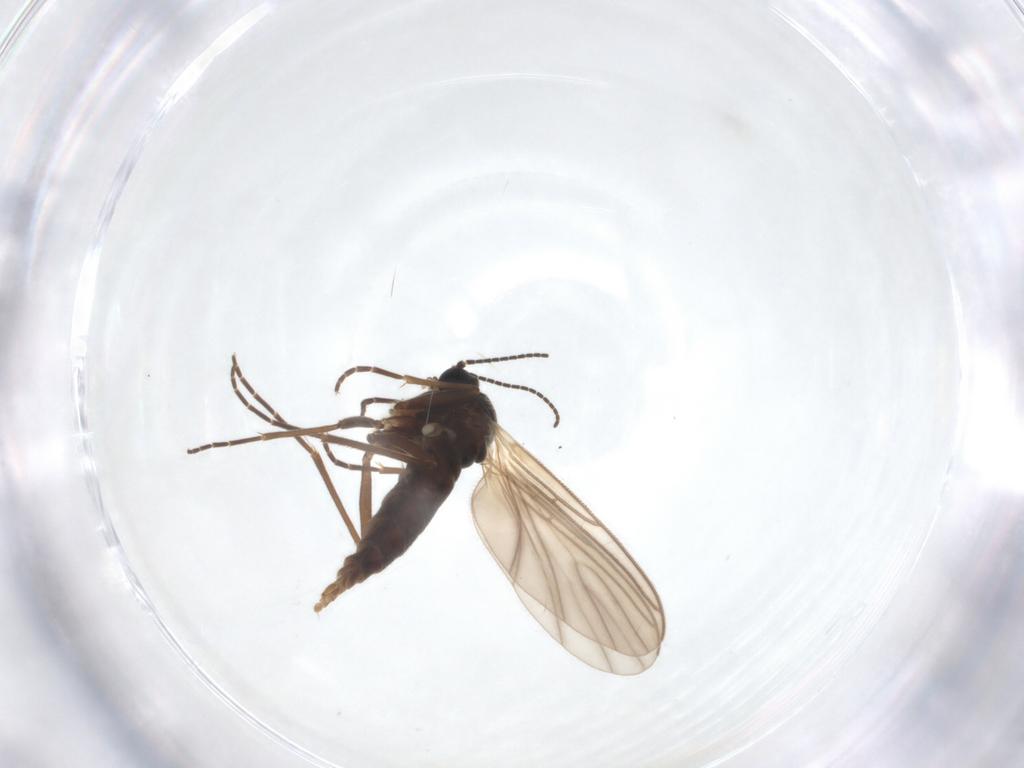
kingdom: Animalia
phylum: Arthropoda
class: Insecta
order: Diptera
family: Sciaridae
